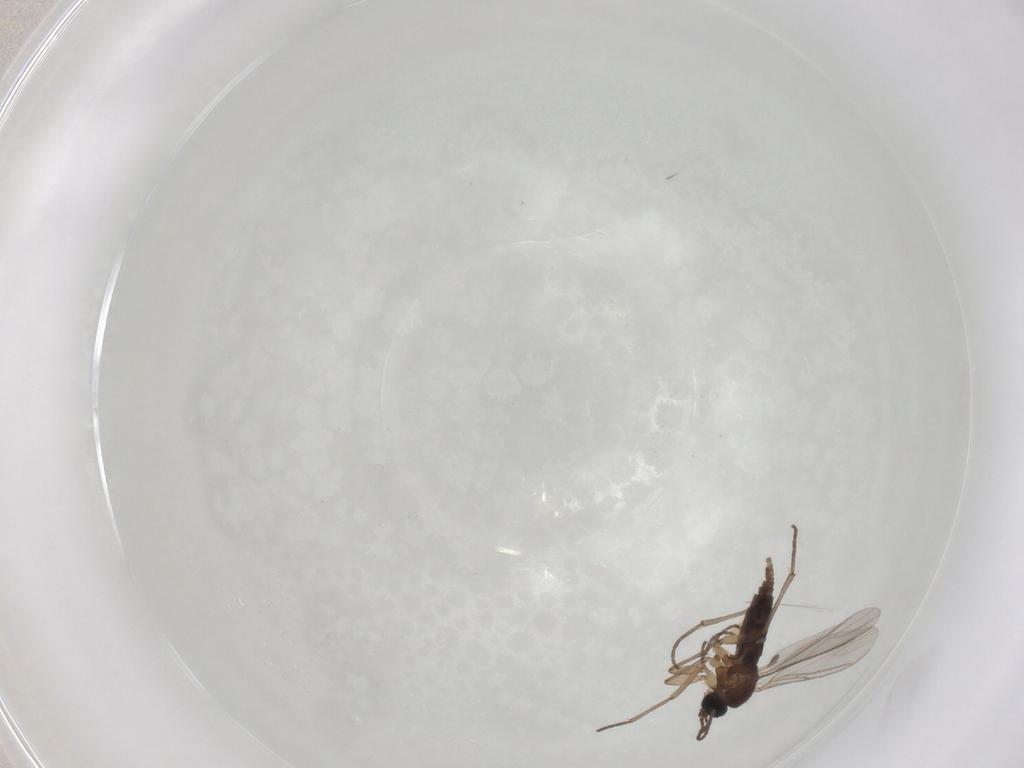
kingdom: Animalia
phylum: Arthropoda
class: Insecta
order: Diptera
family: Sciaridae
